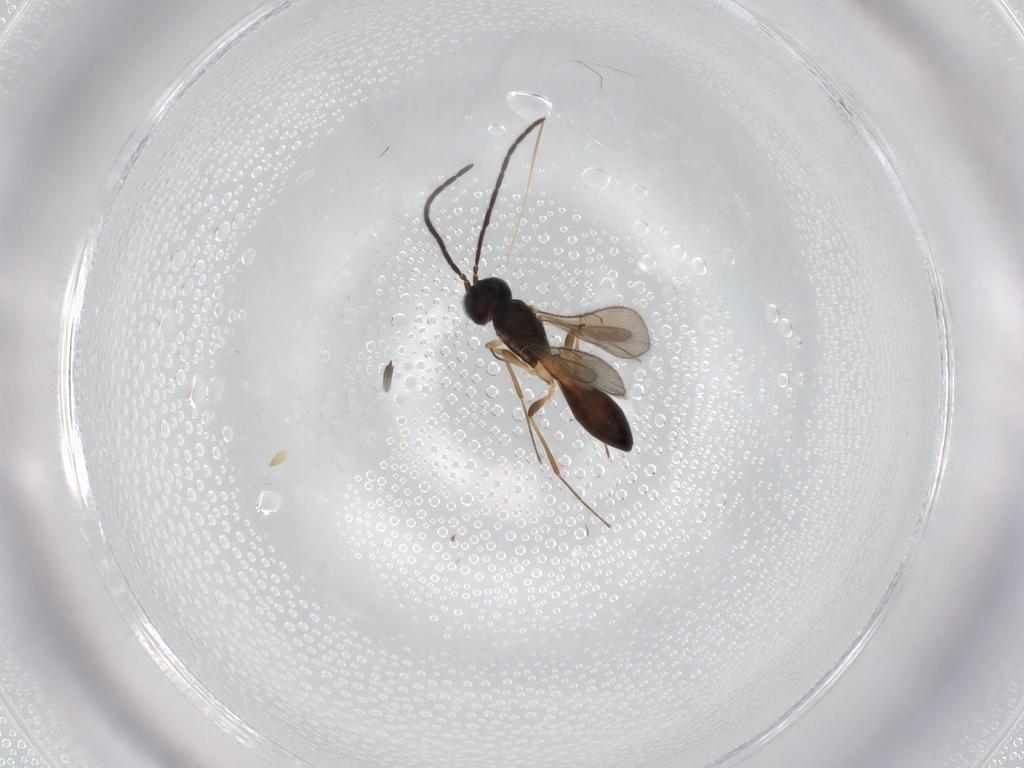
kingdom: Animalia
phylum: Arthropoda
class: Insecta
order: Hymenoptera
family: Scelionidae
